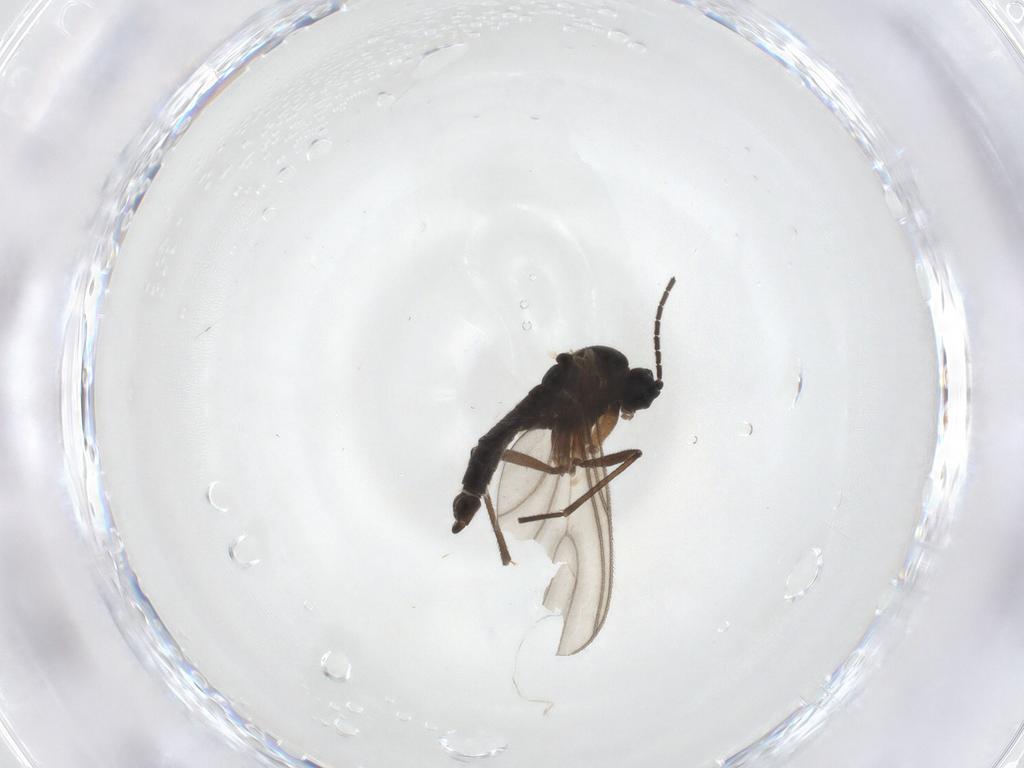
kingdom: Animalia
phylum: Arthropoda
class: Insecta
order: Diptera
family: Sciaridae
